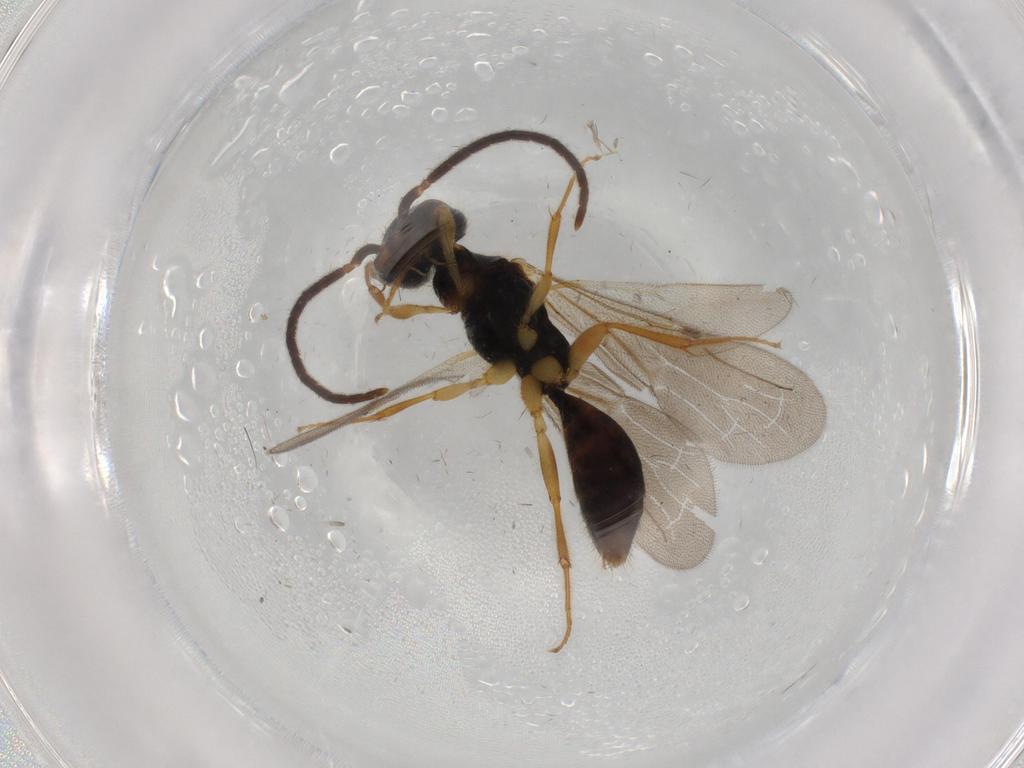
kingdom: Animalia
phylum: Arthropoda
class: Insecta
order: Hymenoptera
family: Bethylidae
